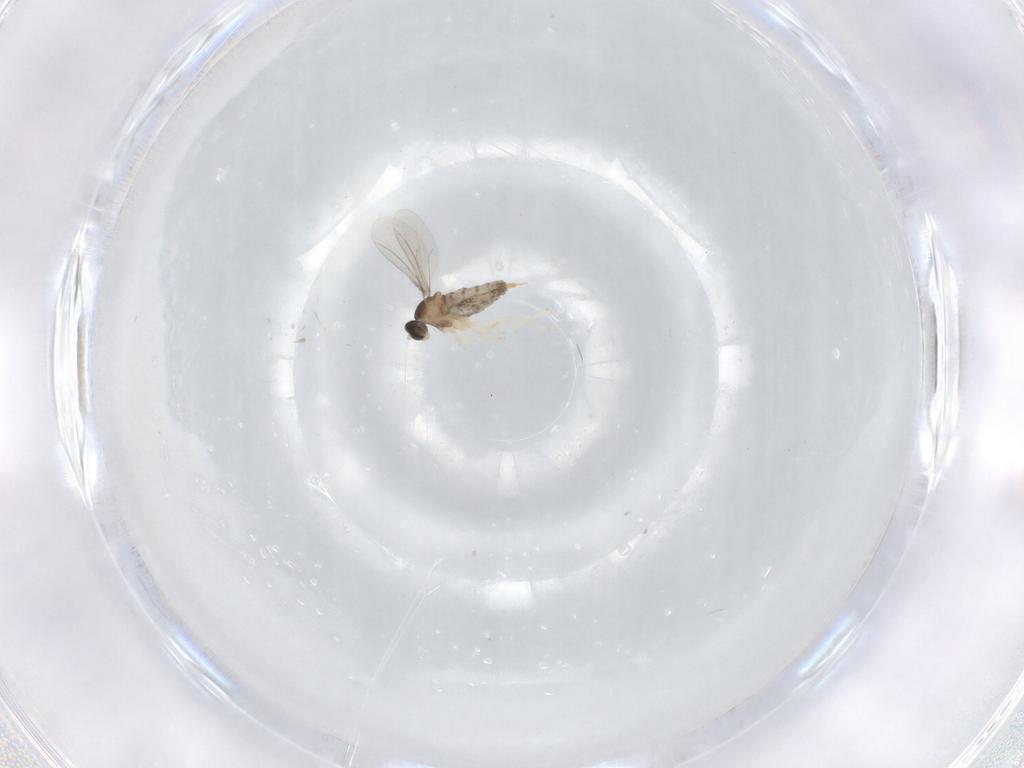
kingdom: Animalia
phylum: Arthropoda
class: Insecta
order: Diptera
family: Cecidomyiidae
